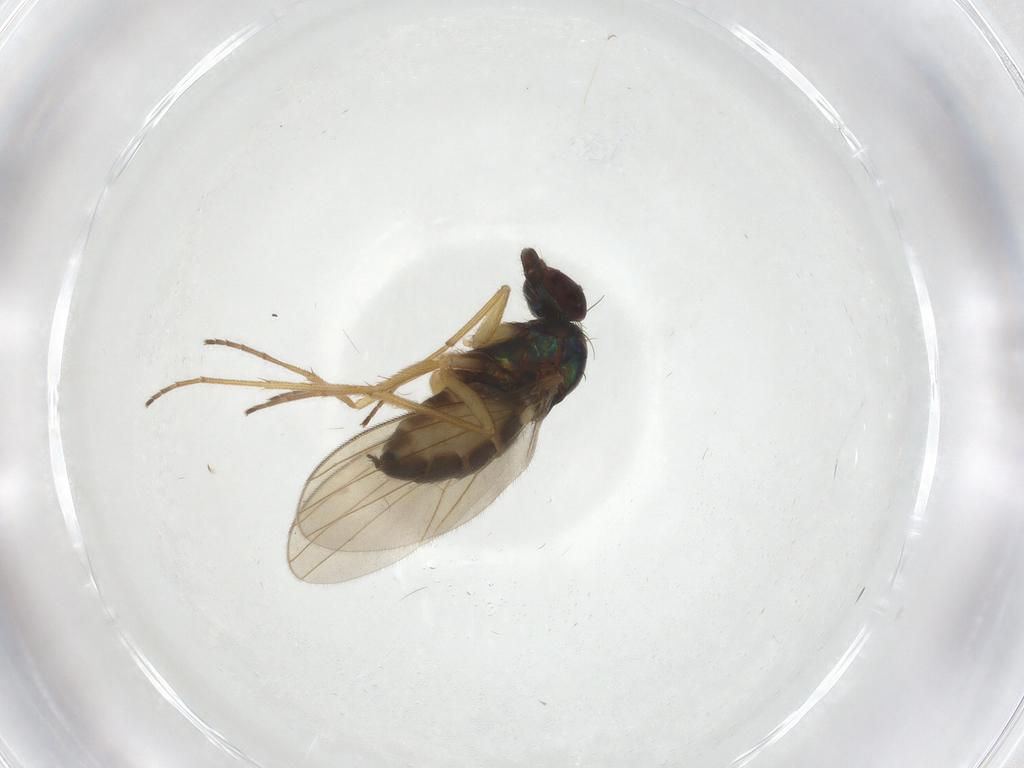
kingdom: Animalia
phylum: Arthropoda
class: Insecta
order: Diptera
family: Dolichopodidae
